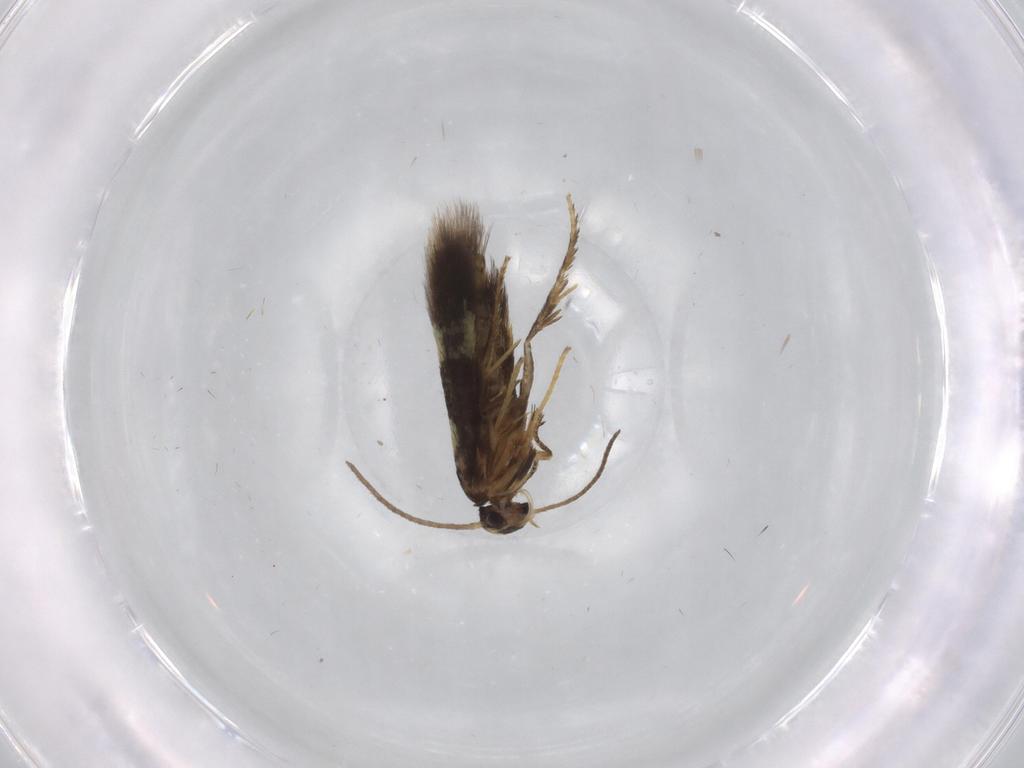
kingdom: Animalia
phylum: Arthropoda
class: Insecta
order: Lepidoptera
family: Heliozelidae
